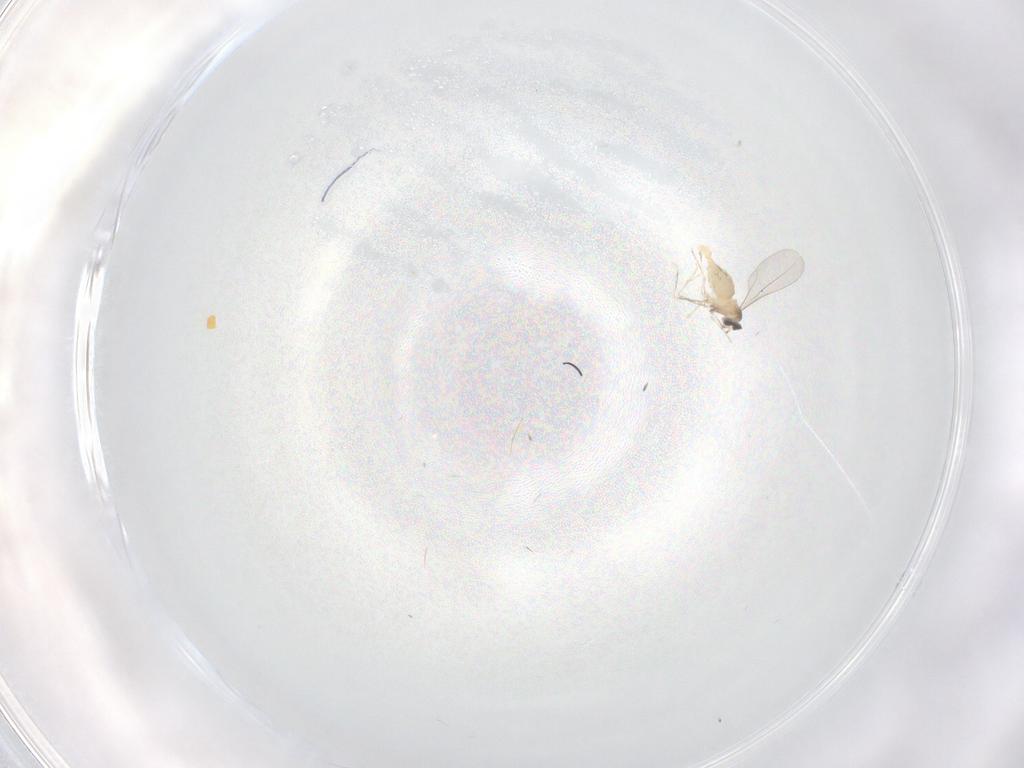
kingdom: Animalia
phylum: Arthropoda
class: Insecta
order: Diptera
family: Cecidomyiidae
